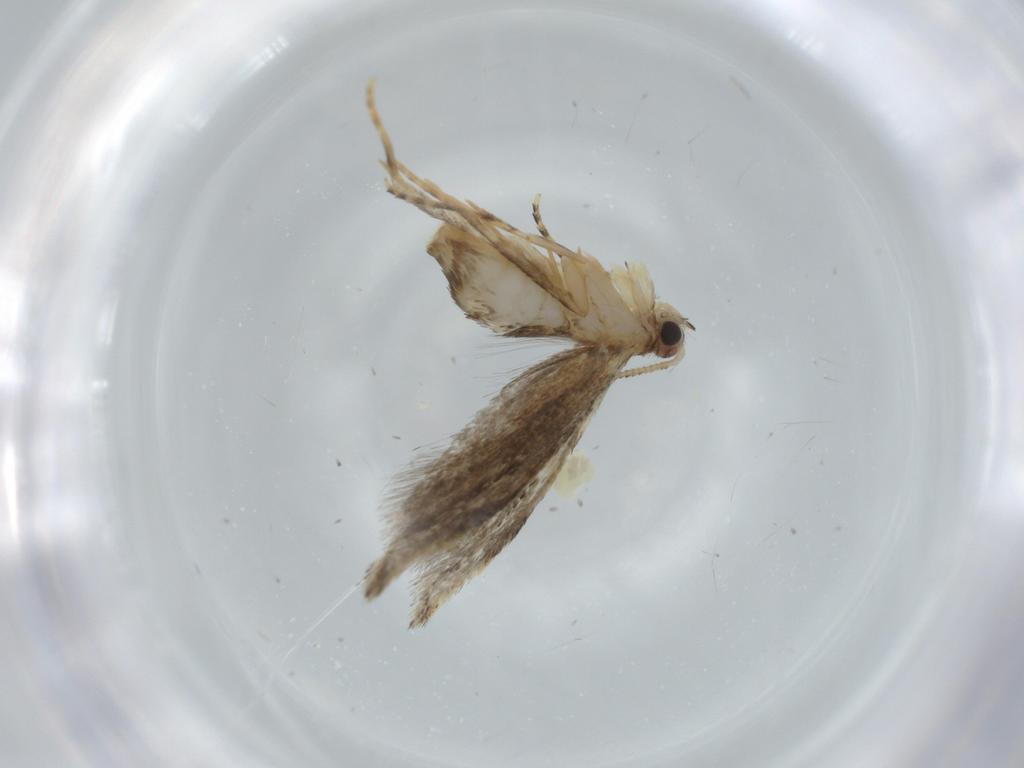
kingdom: Animalia
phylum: Arthropoda
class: Insecta
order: Lepidoptera
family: Tineidae
